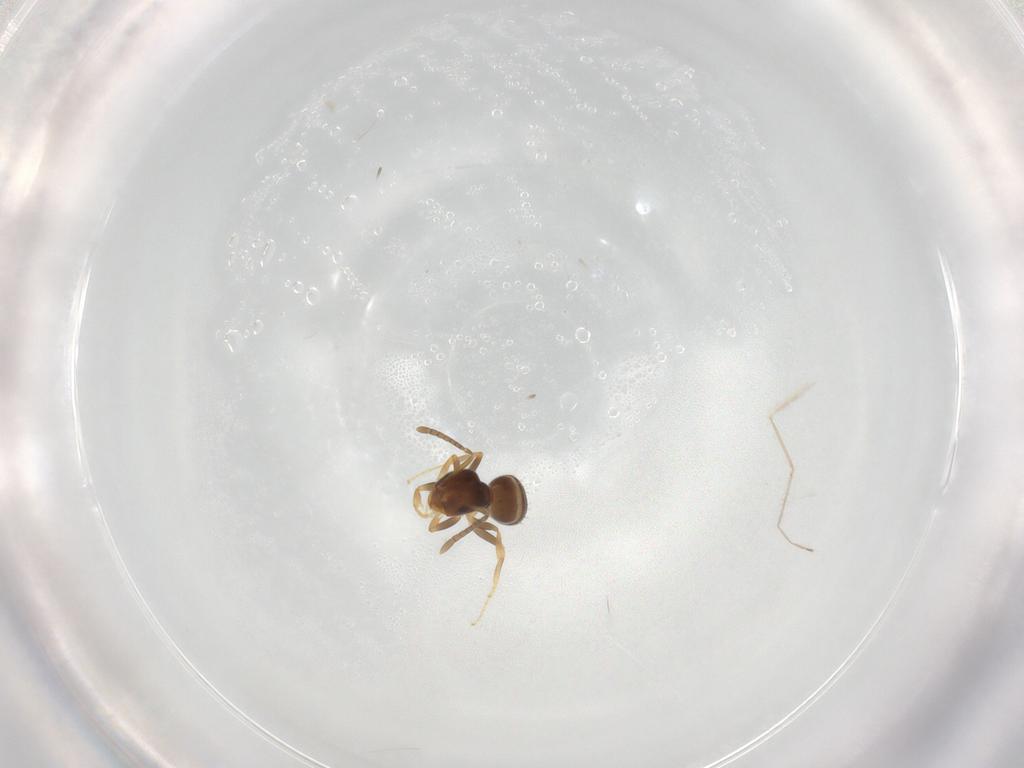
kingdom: Animalia
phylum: Arthropoda
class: Insecta
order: Hymenoptera
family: Formicidae
